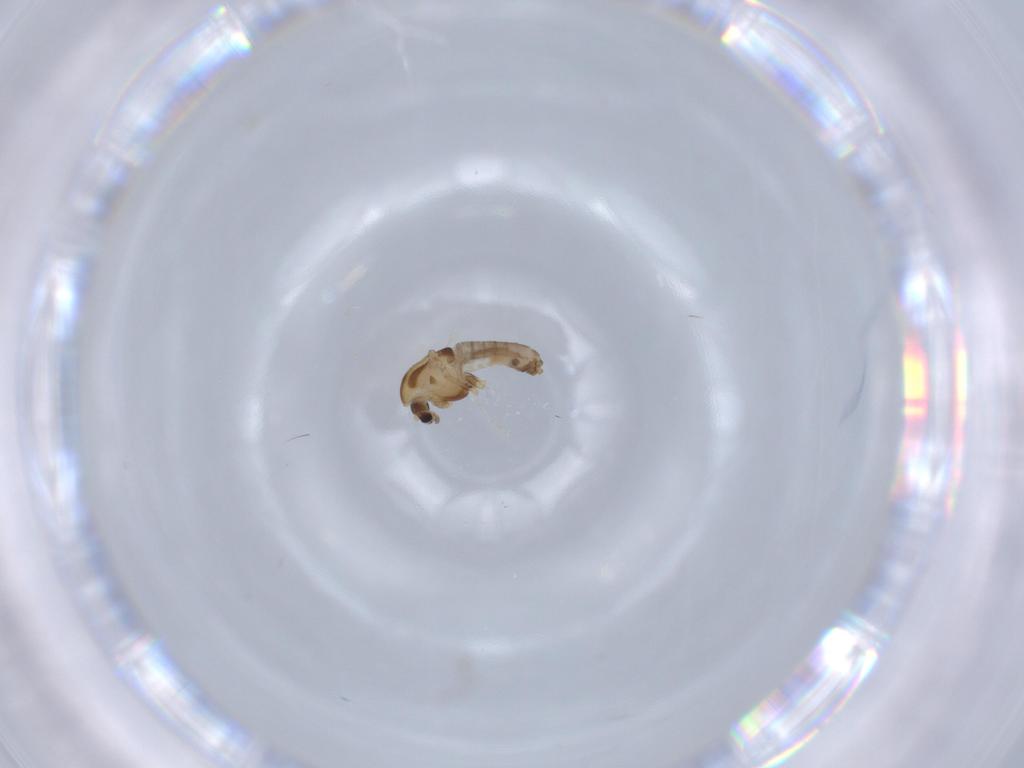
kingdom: Animalia
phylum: Arthropoda
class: Insecta
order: Diptera
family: Chironomidae
